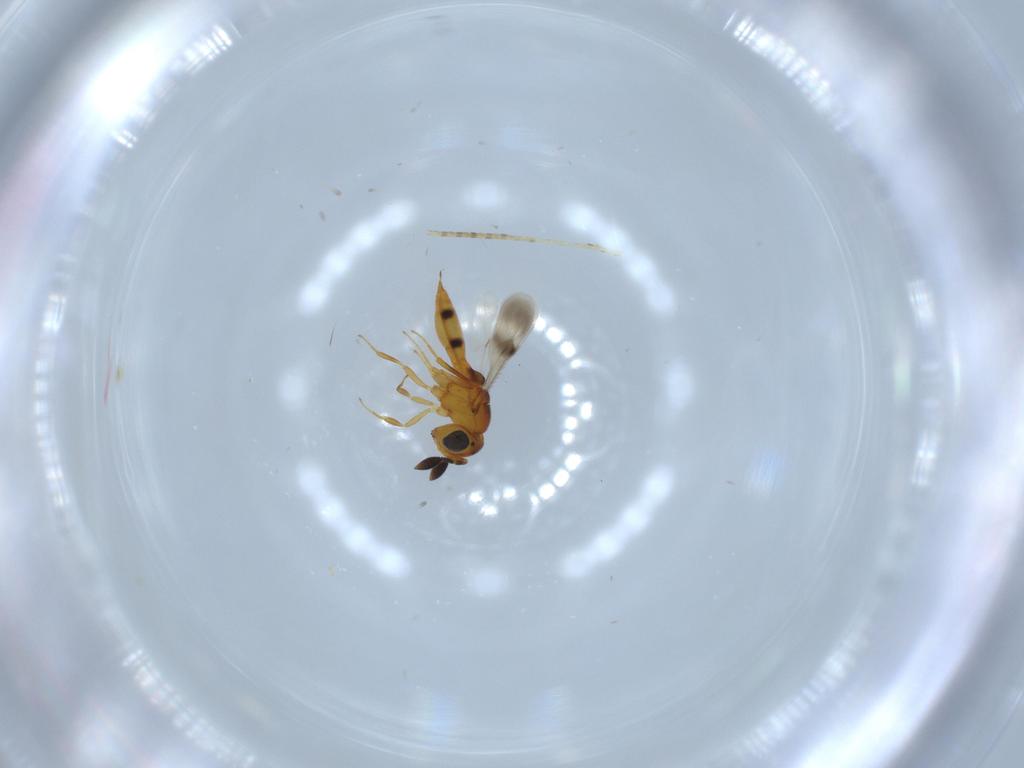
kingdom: Animalia
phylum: Arthropoda
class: Insecta
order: Hymenoptera
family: Scelionidae
